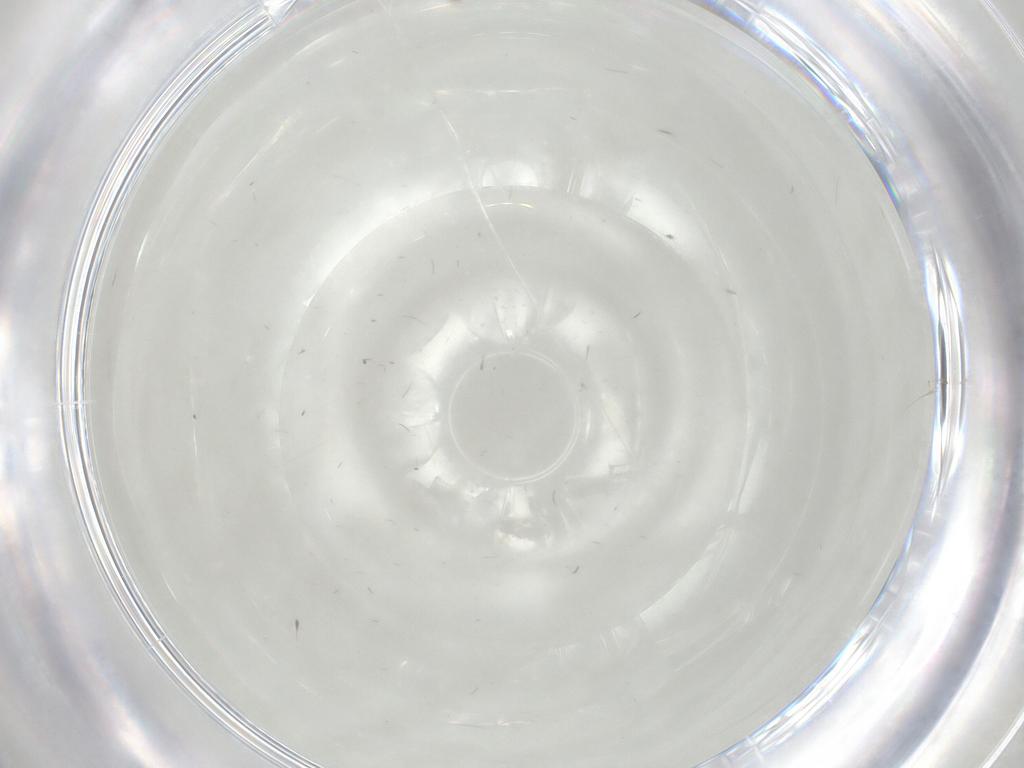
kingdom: Animalia
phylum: Arthropoda
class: Insecta
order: Diptera
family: Chironomidae
